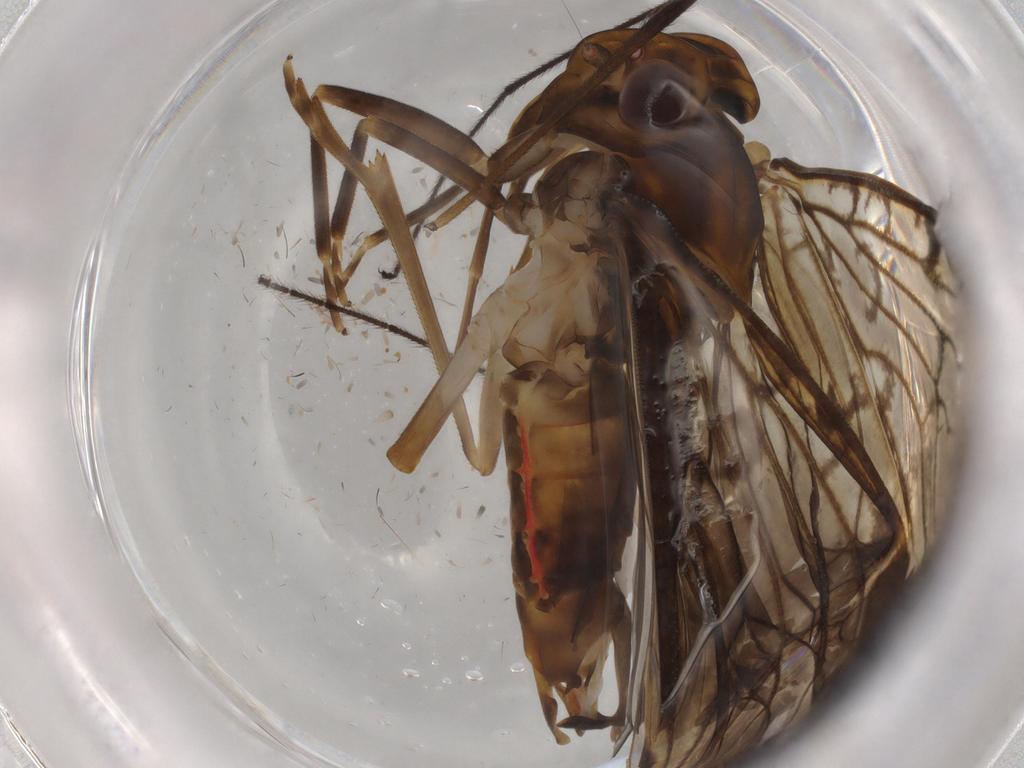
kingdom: Animalia
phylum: Arthropoda
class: Insecta
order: Hemiptera
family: Cixiidae
